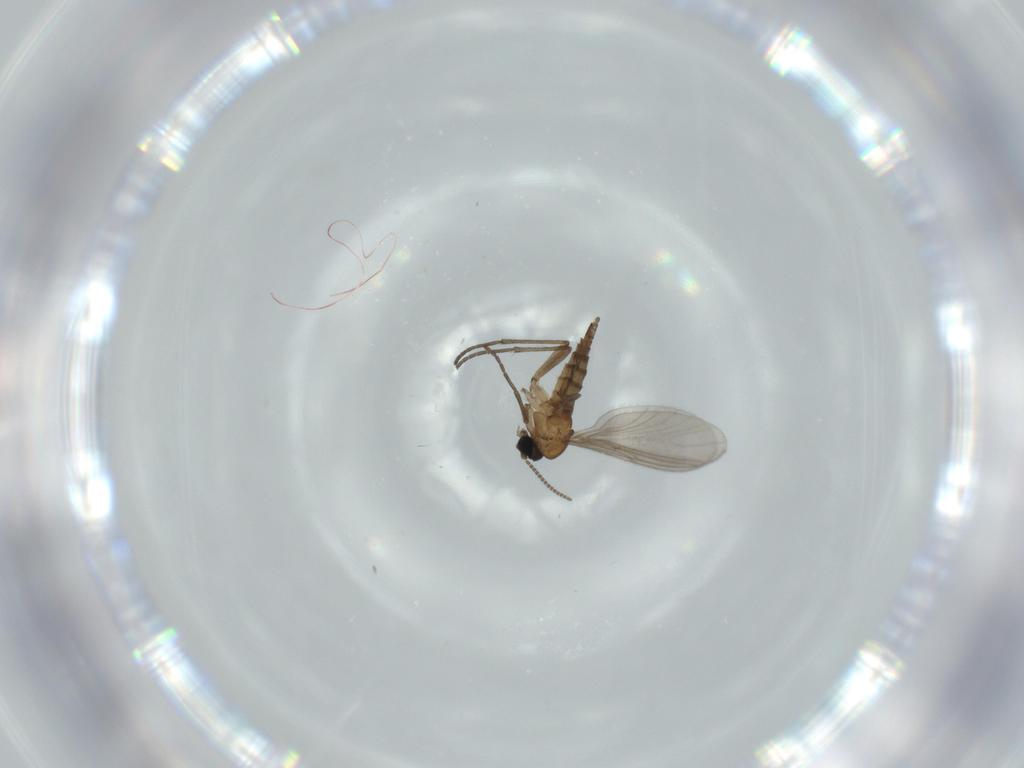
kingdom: Animalia
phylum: Arthropoda
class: Insecta
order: Diptera
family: Sciaridae
